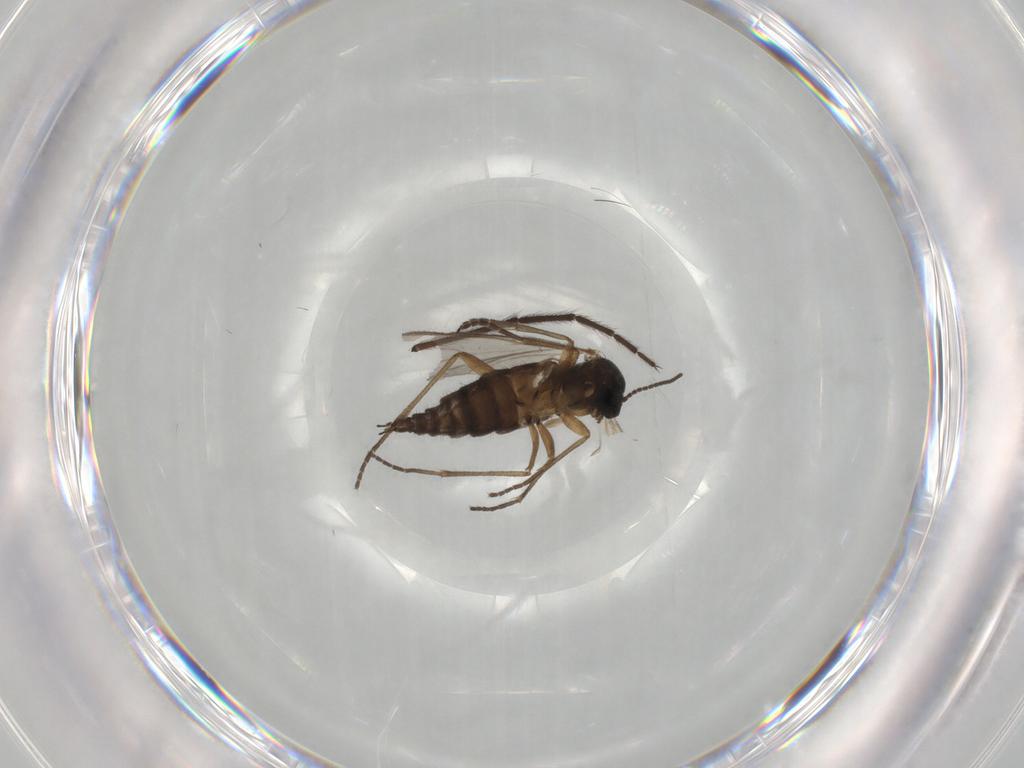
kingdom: Animalia
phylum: Arthropoda
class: Insecta
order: Diptera
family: Sciaridae
